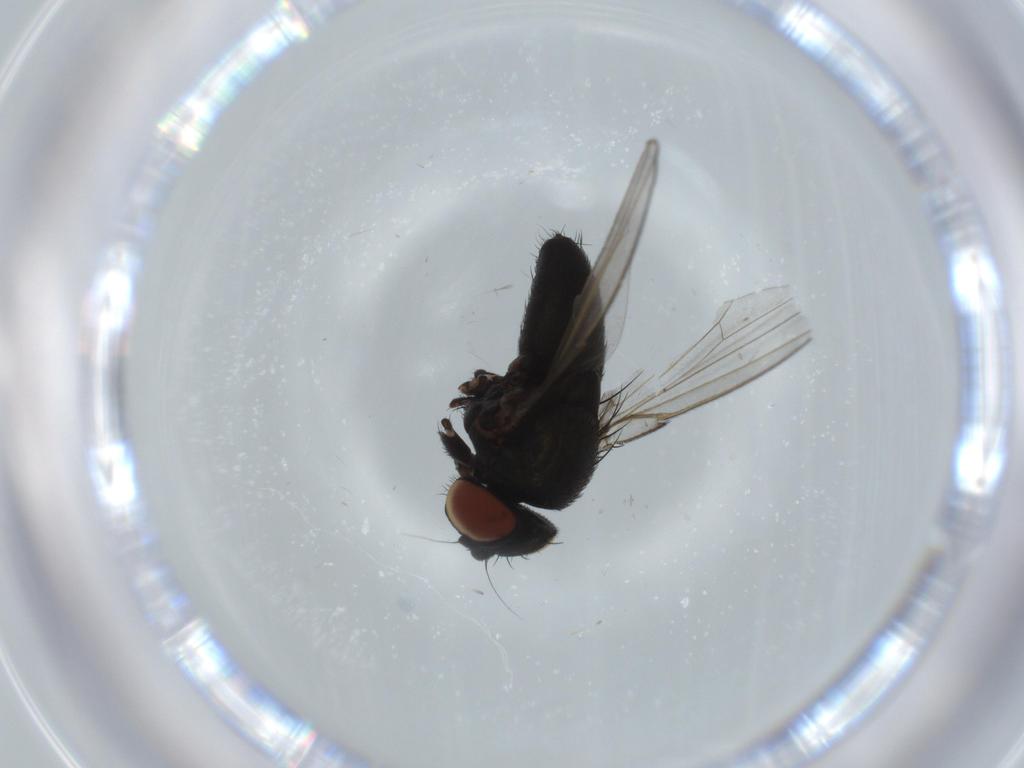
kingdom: Animalia
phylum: Arthropoda
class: Insecta
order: Diptera
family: Milichiidae
